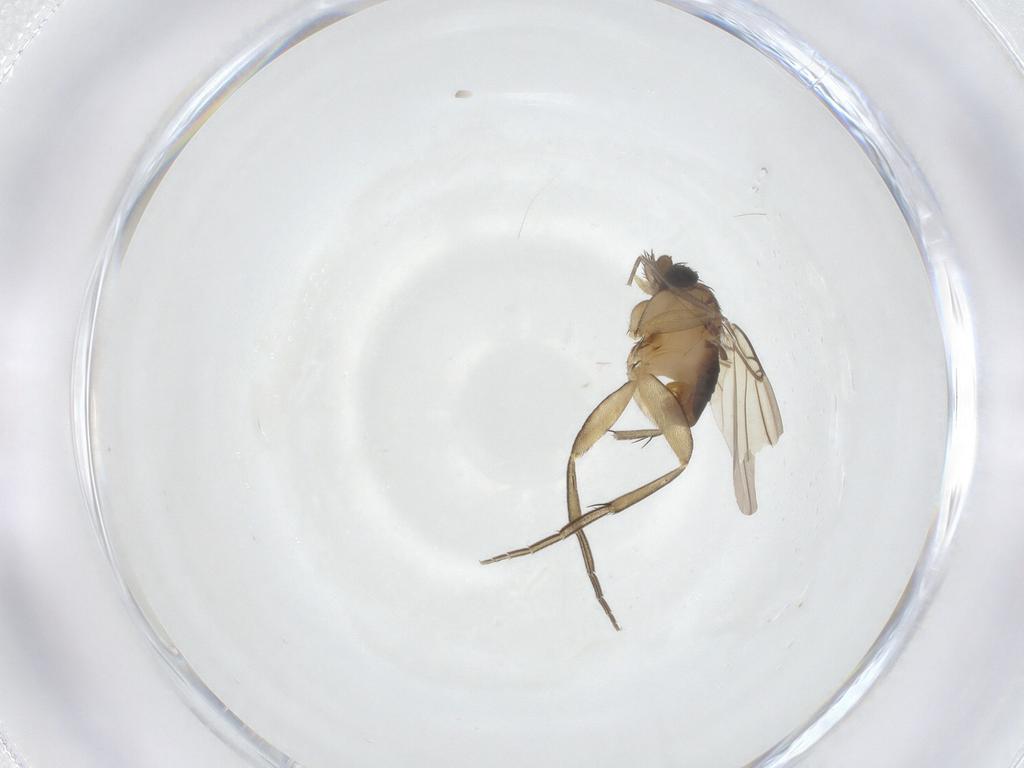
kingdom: Animalia
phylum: Arthropoda
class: Insecta
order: Diptera
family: Phoridae
